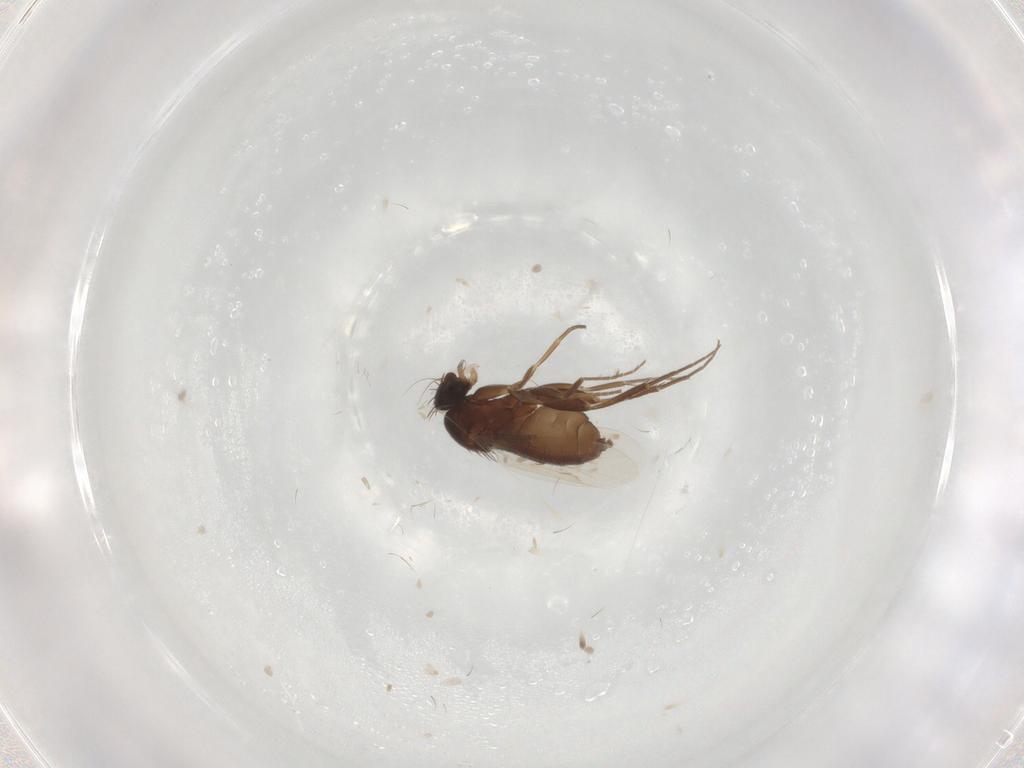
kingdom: Animalia
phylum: Arthropoda
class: Insecta
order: Diptera
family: Phoridae
